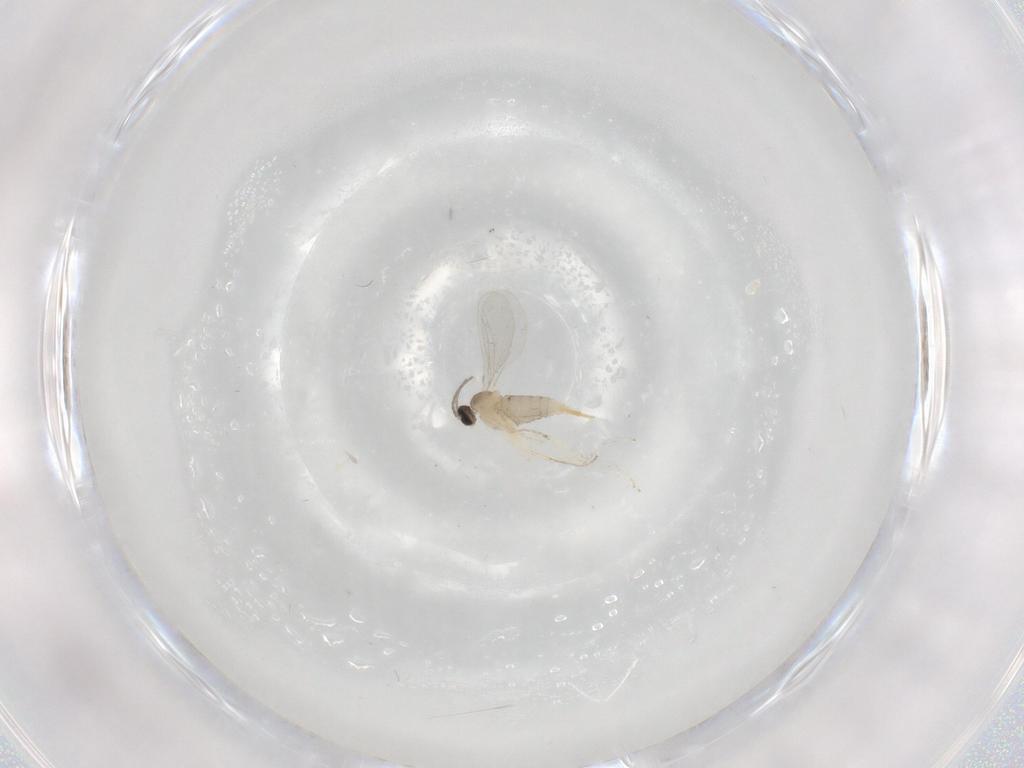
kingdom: Animalia
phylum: Arthropoda
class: Insecta
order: Diptera
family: Cecidomyiidae
